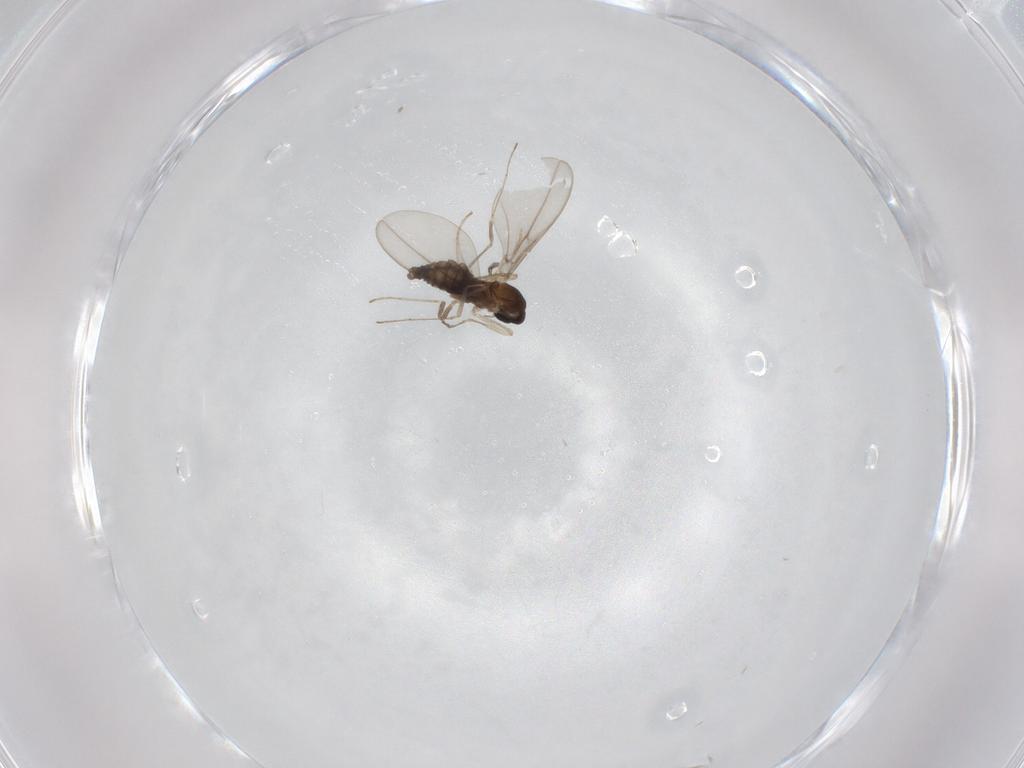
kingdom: Animalia
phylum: Arthropoda
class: Insecta
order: Diptera
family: Cecidomyiidae
